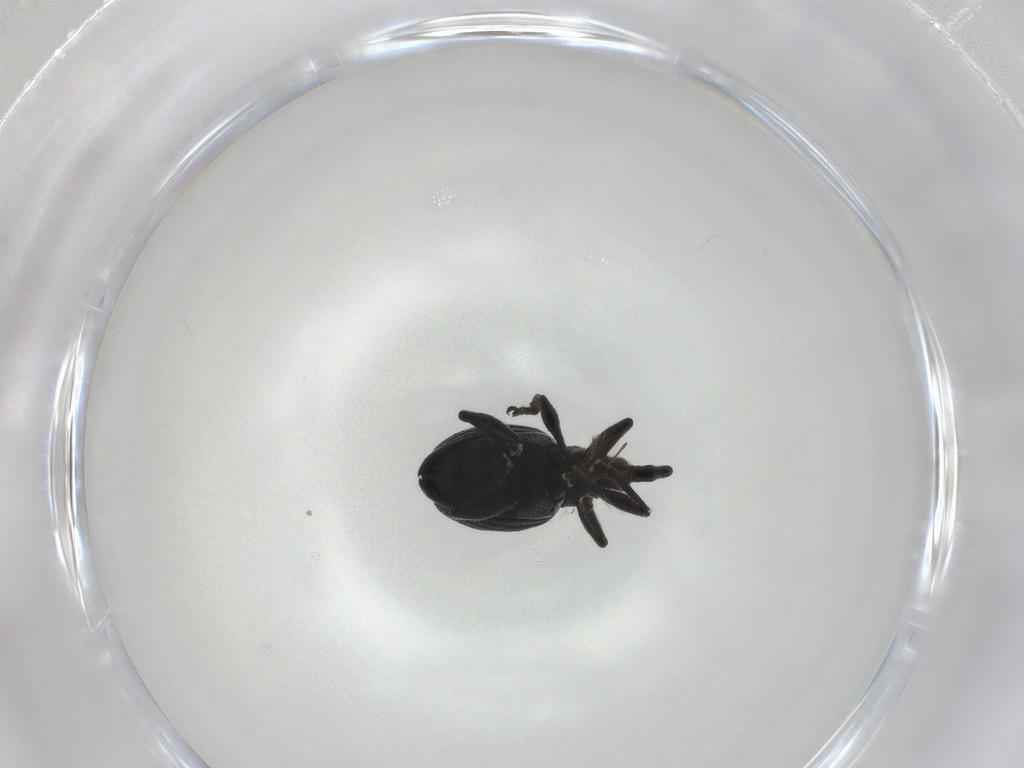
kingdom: Animalia
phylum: Arthropoda
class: Insecta
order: Coleoptera
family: Brentidae
